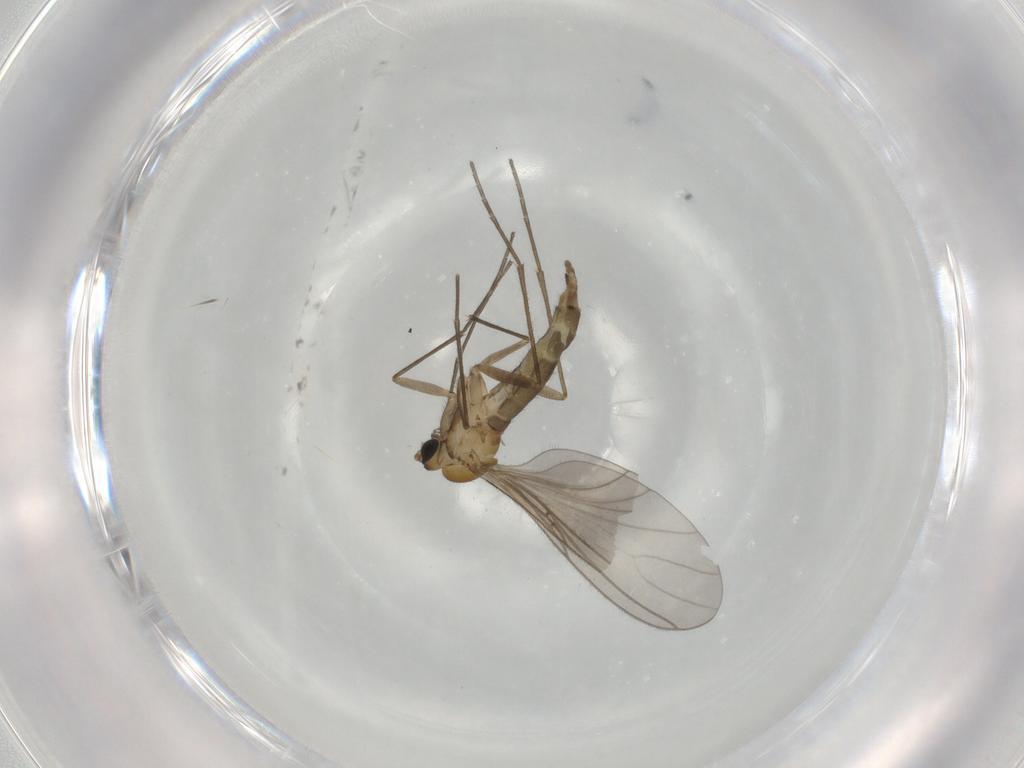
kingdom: Animalia
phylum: Arthropoda
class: Insecta
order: Diptera
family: Sciaridae
